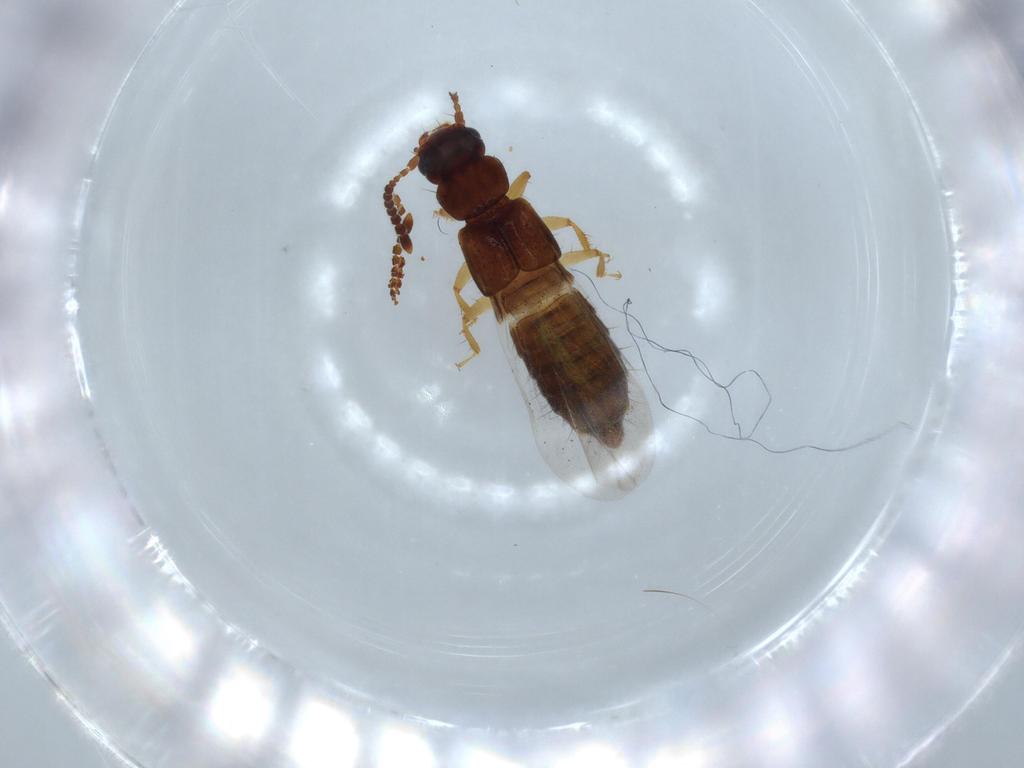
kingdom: Animalia
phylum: Arthropoda
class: Insecta
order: Coleoptera
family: Staphylinidae
